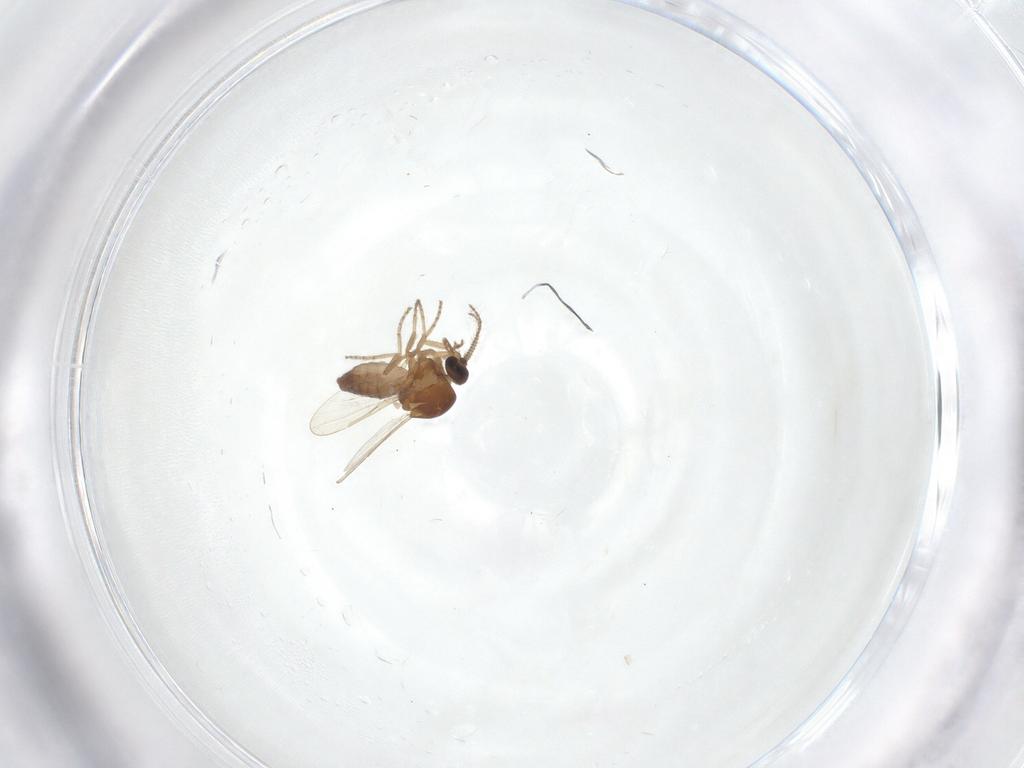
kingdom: Animalia
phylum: Arthropoda
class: Insecta
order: Diptera
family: Ceratopogonidae
